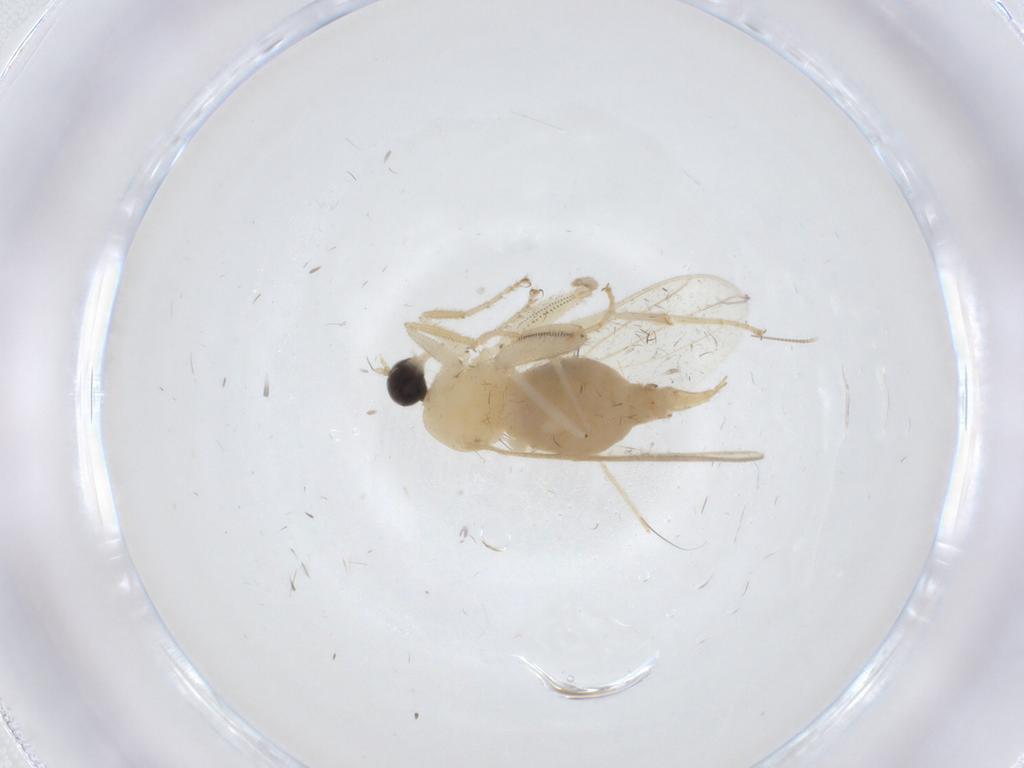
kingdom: Animalia
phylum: Arthropoda
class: Insecta
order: Diptera
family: Hybotidae
